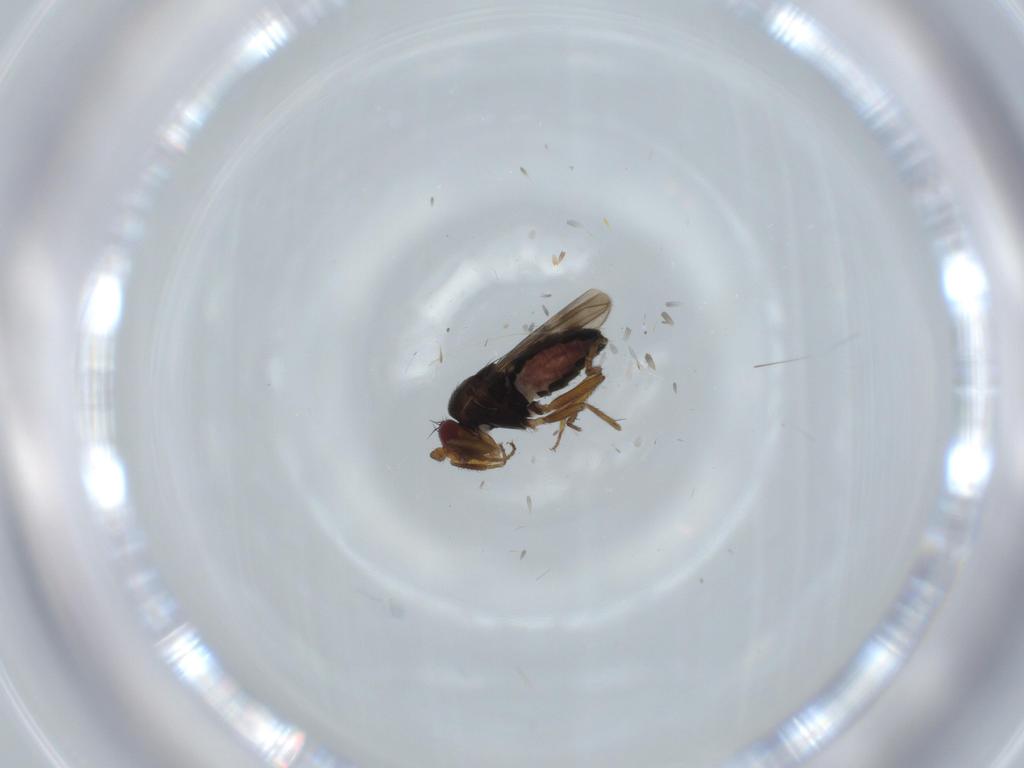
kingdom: Animalia
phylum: Arthropoda
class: Insecta
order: Diptera
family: Sphaeroceridae
